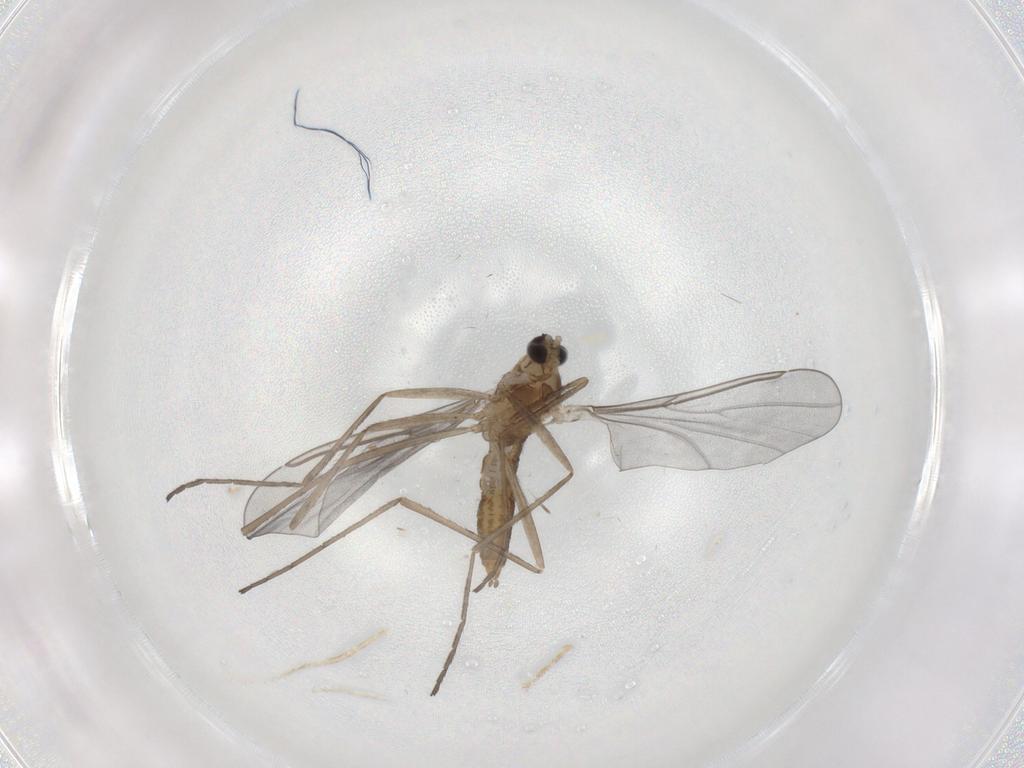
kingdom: Animalia
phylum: Arthropoda
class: Insecta
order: Diptera
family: Phoridae
